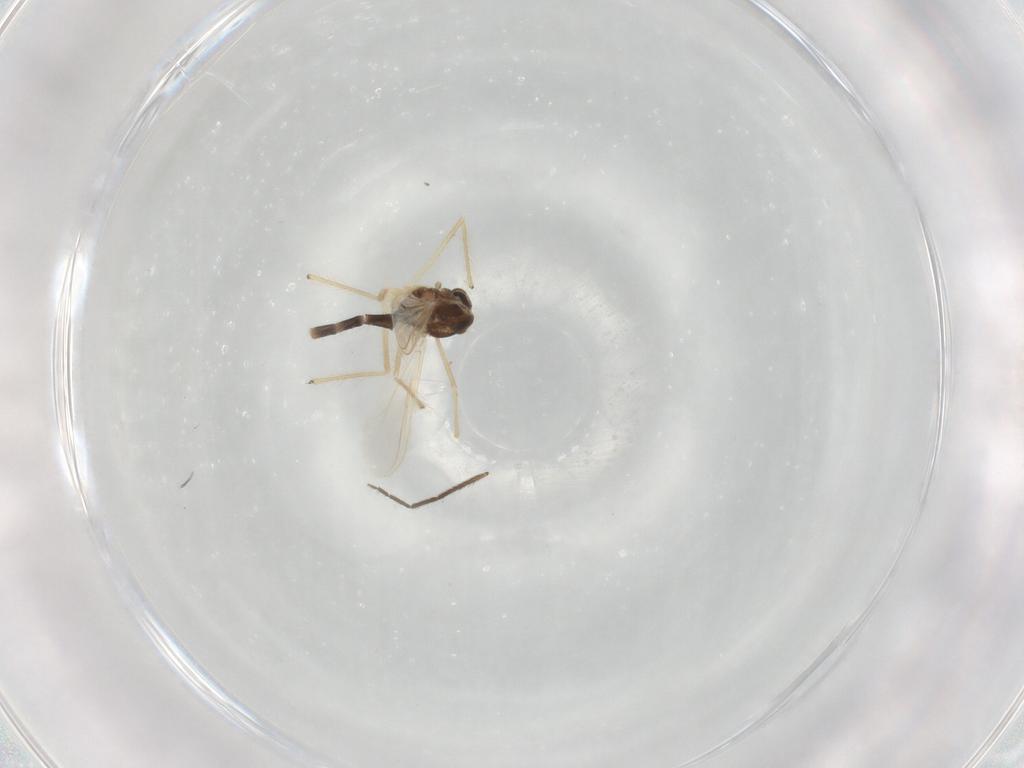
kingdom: Animalia
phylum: Arthropoda
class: Insecta
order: Diptera
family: Chironomidae
